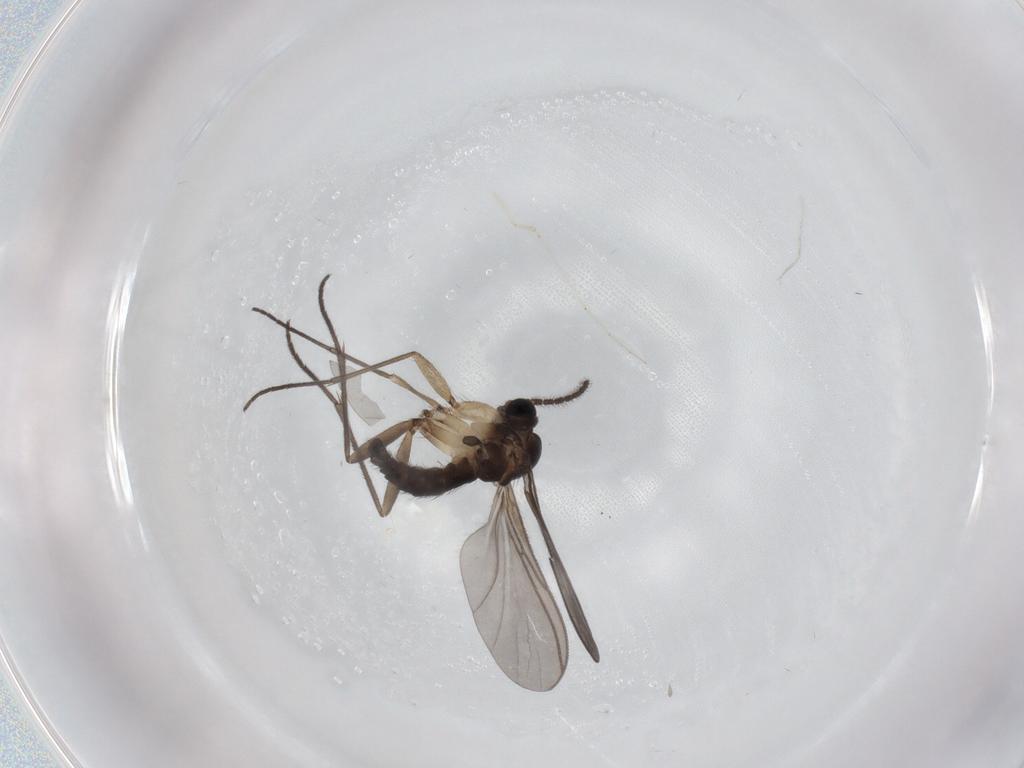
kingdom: Animalia
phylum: Arthropoda
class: Insecta
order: Diptera
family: Sciaridae
